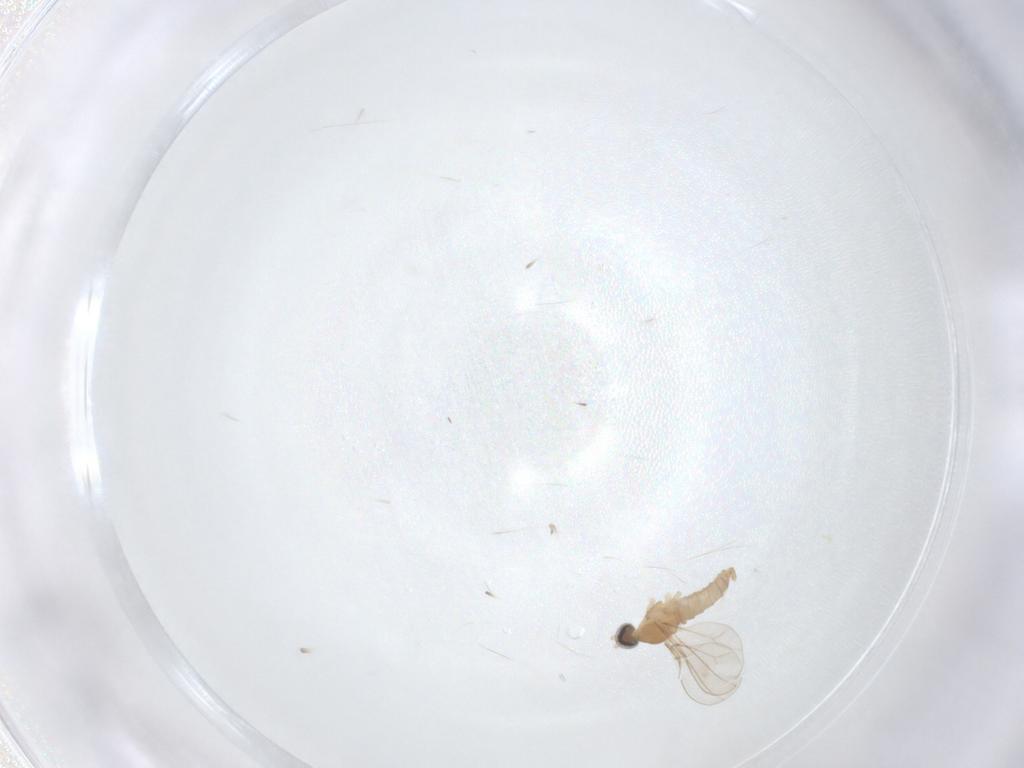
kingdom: Animalia
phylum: Arthropoda
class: Insecta
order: Diptera
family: Cecidomyiidae
